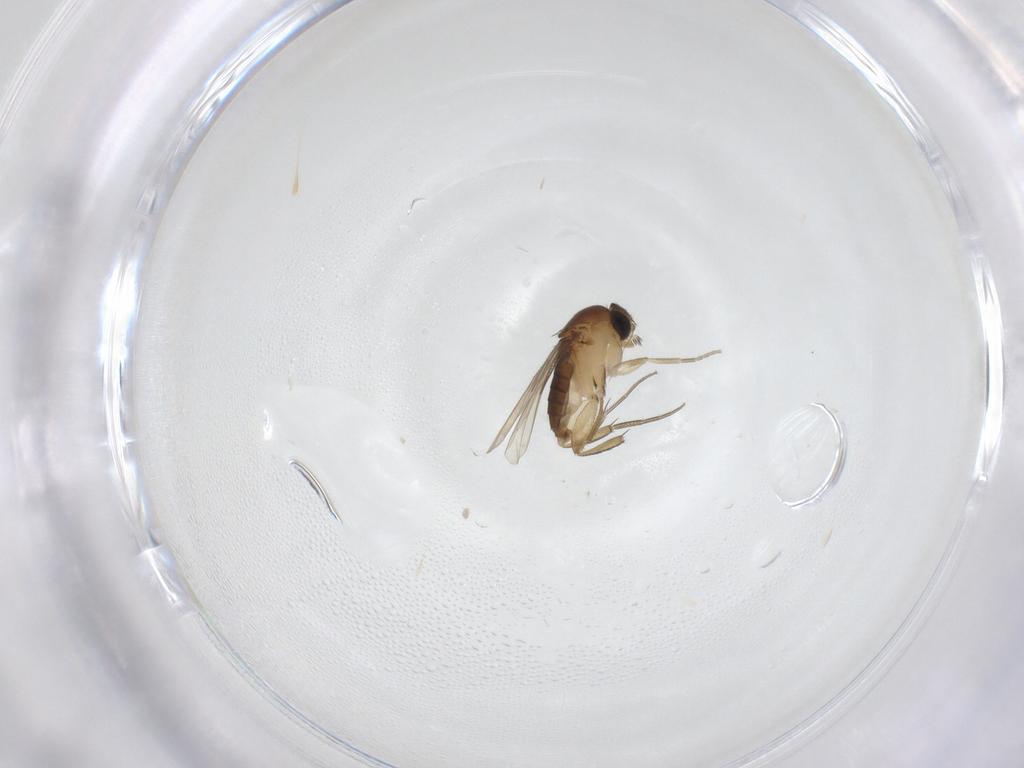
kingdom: Animalia
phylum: Arthropoda
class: Insecta
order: Diptera
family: Phoridae
